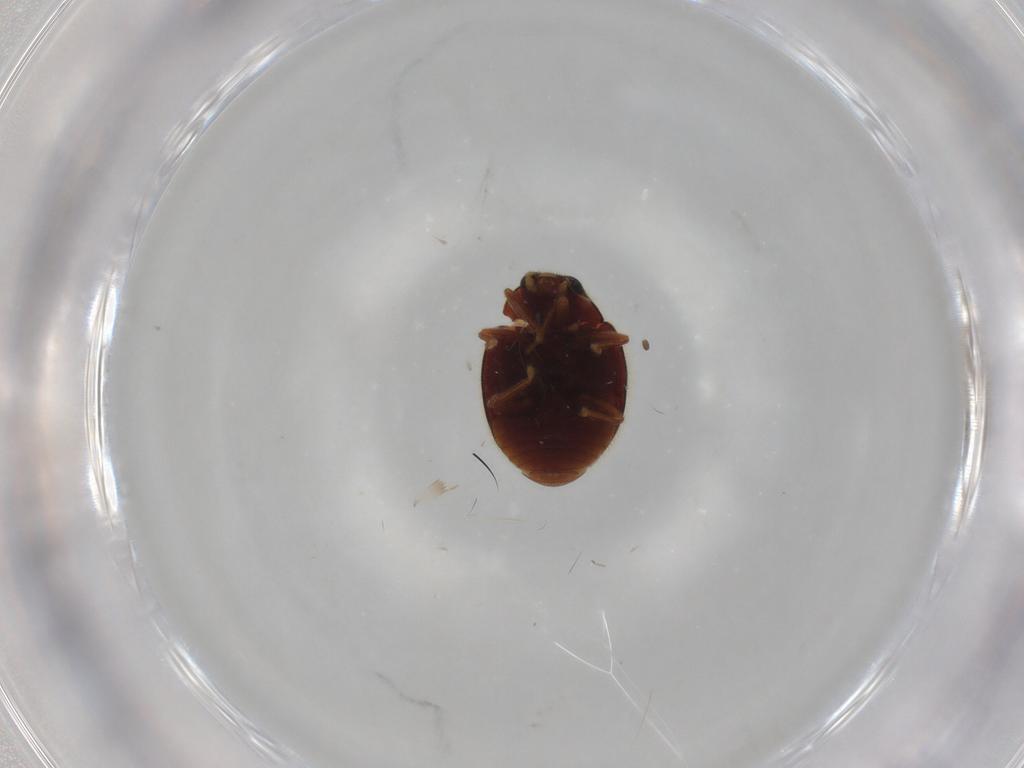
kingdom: Animalia
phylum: Arthropoda
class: Insecta
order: Coleoptera
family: Coccinellidae
